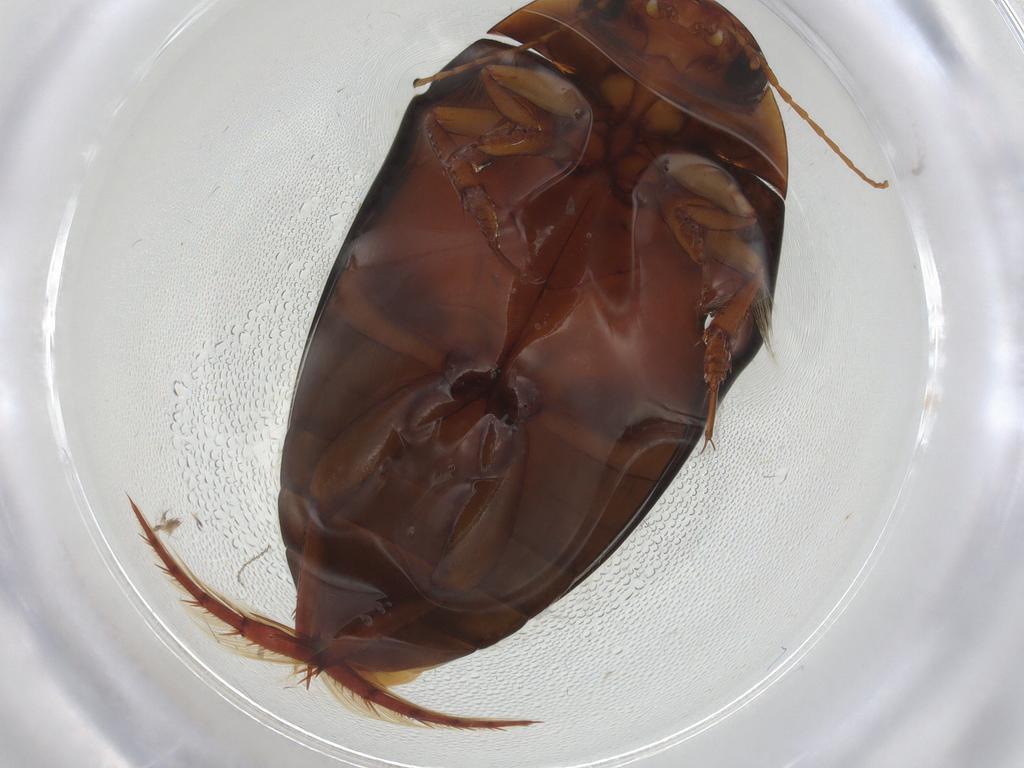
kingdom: Animalia
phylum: Arthropoda
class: Insecta
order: Coleoptera
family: Dytiscidae
